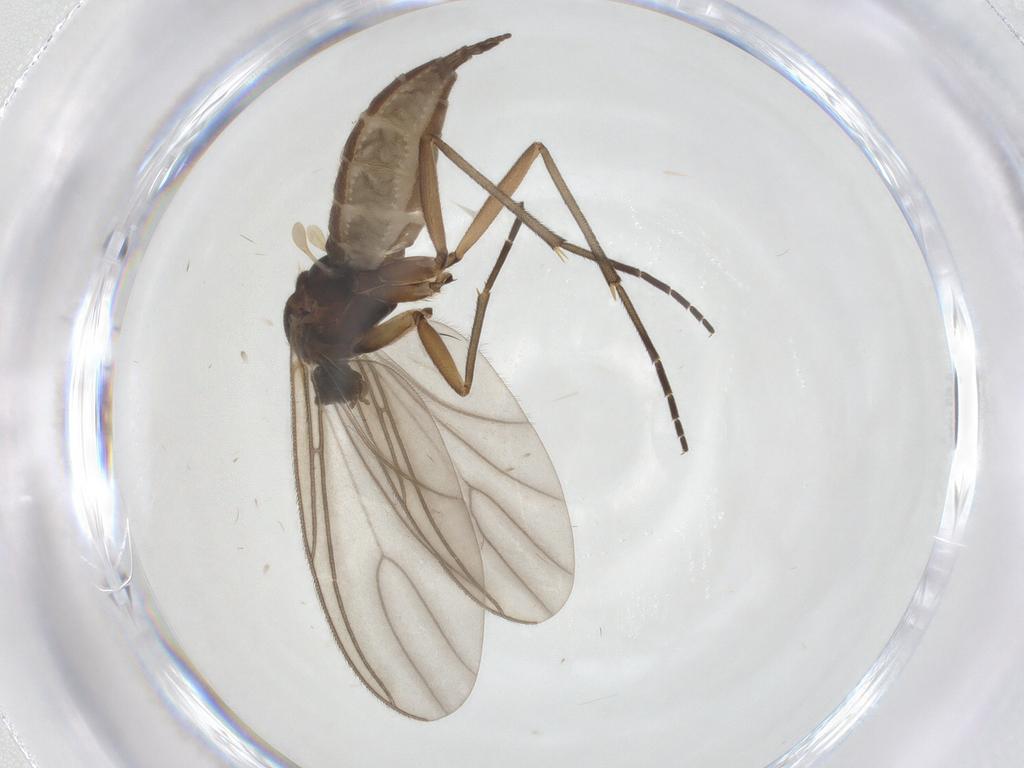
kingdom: Animalia
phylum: Arthropoda
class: Insecta
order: Diptera
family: Sciaridae
